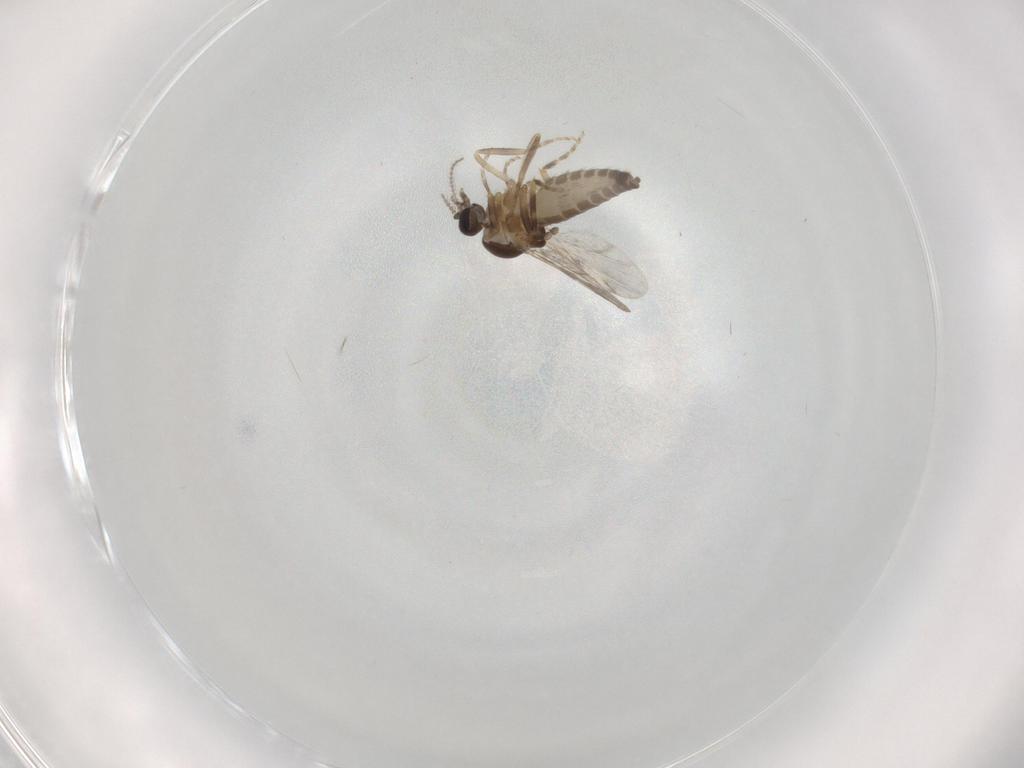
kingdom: Animalia
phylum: Arthropoda
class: Insecta
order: Diptera
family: Ceratopogonidae
